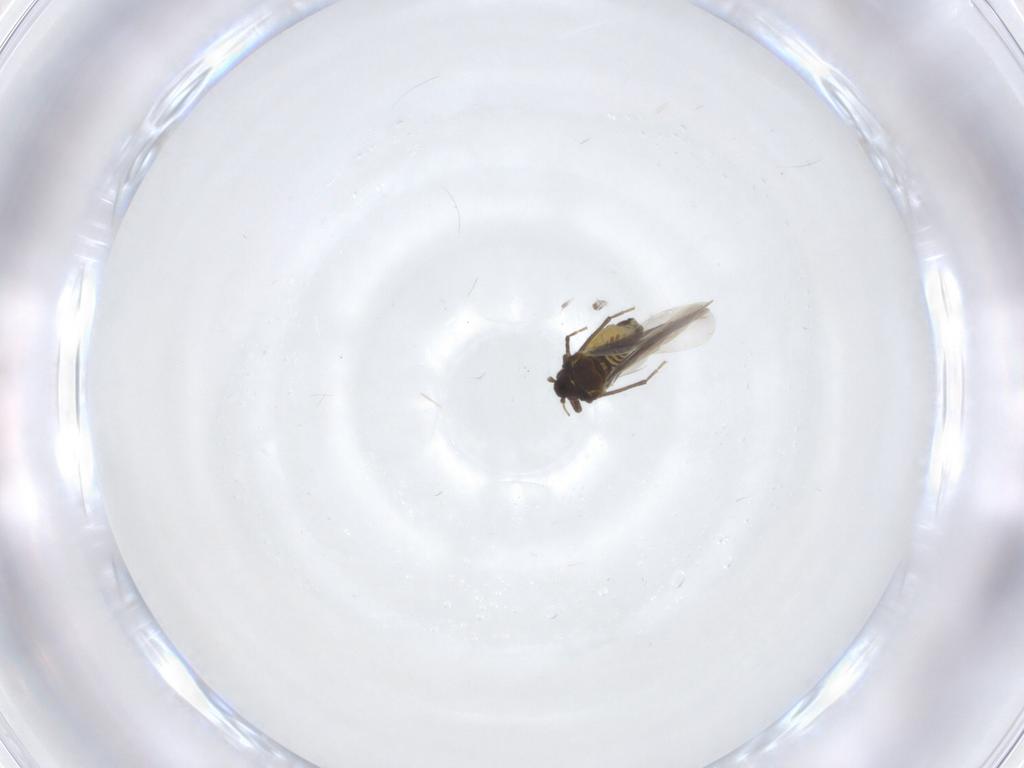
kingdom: Animalia
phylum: Arthropoda
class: Insecta
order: Hemiptera
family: Aleyrodidae
